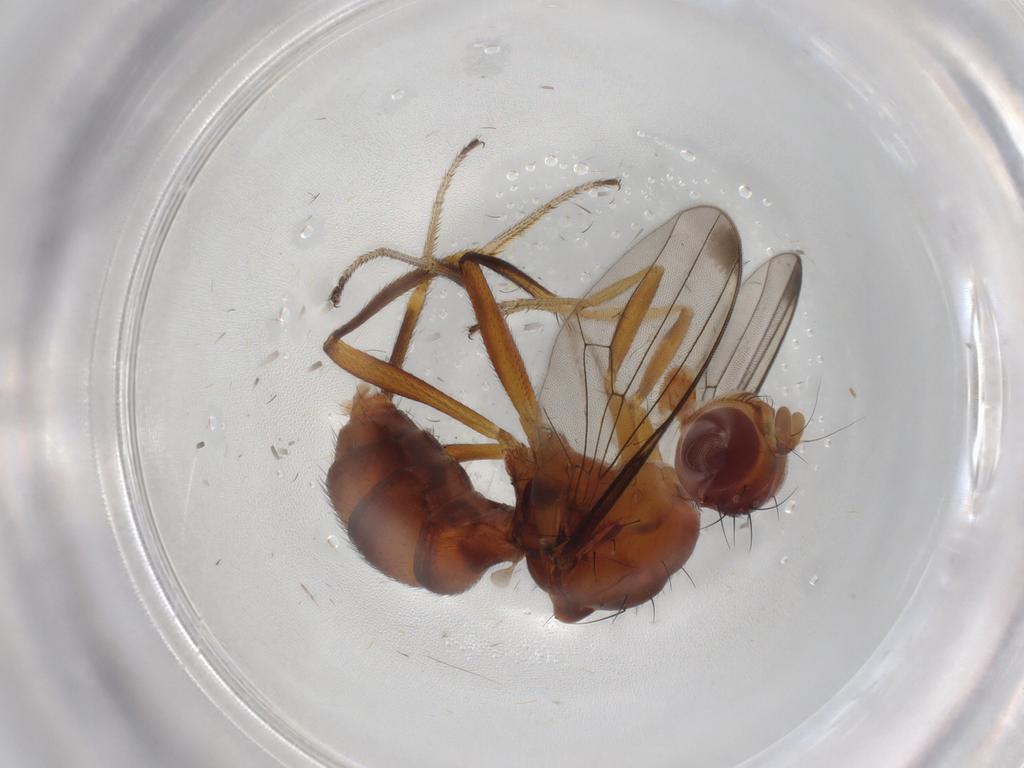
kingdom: Animalia
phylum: Arthropoda
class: Insecta
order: Diptera
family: Sepsidae
